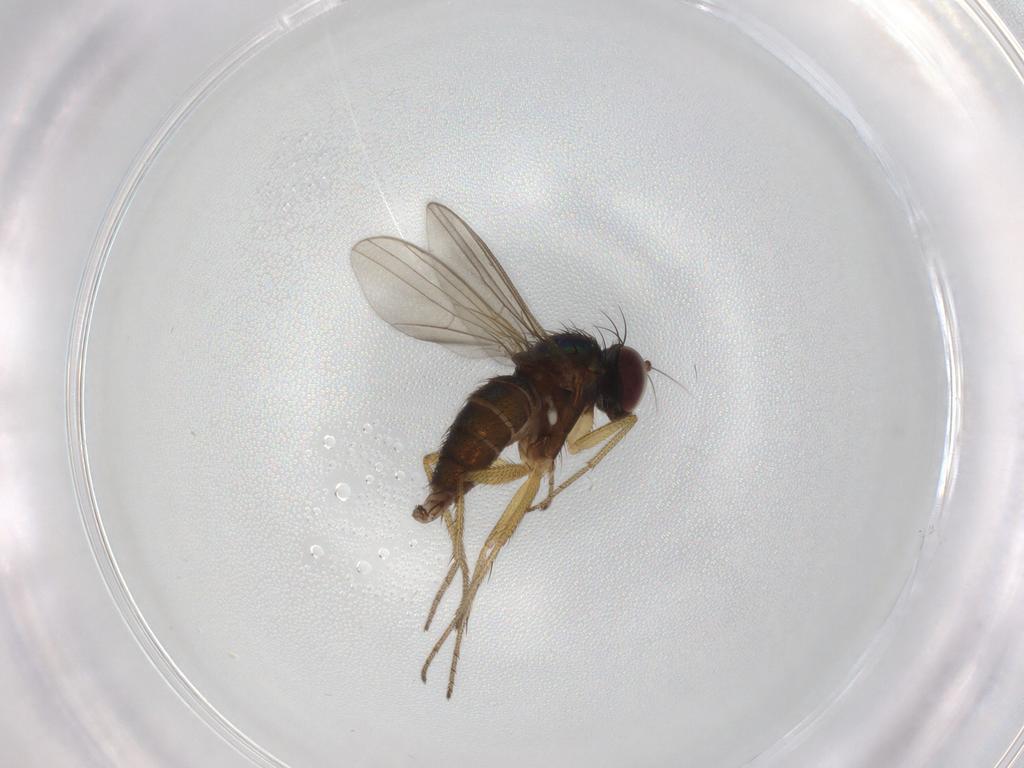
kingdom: Animalia
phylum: Arthropoda
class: Insecta
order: Diptera
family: Dolichopodidae
